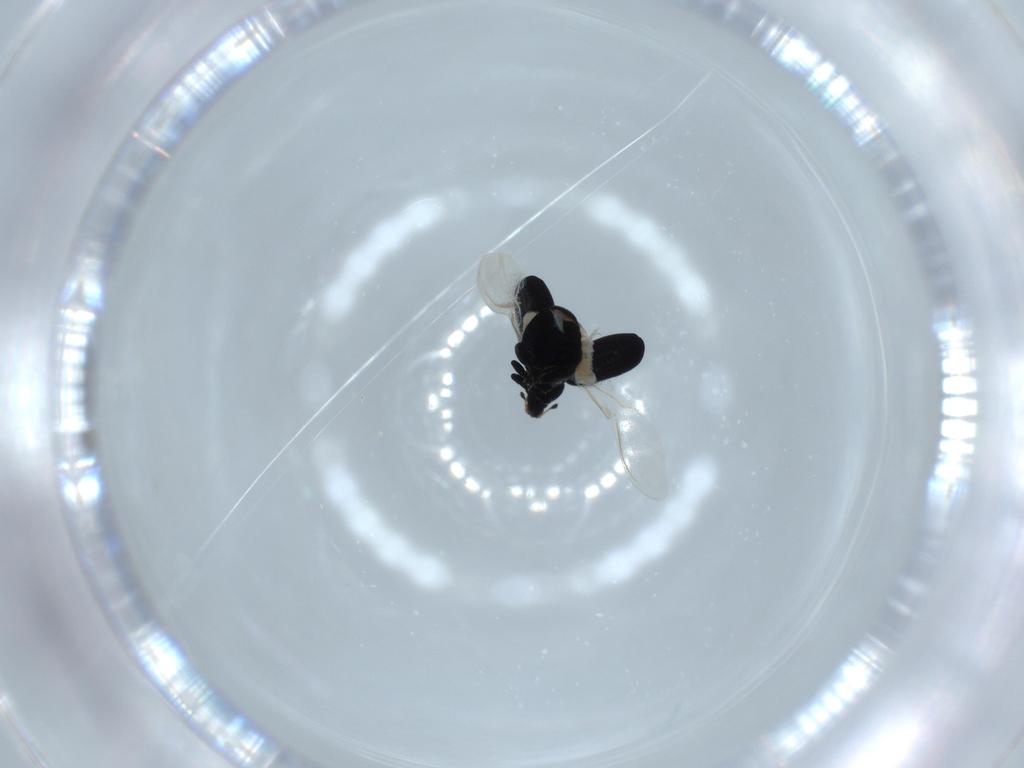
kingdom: Animalia
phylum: Arthropoda
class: Insecta
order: Coleoptera
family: Curculionidae
